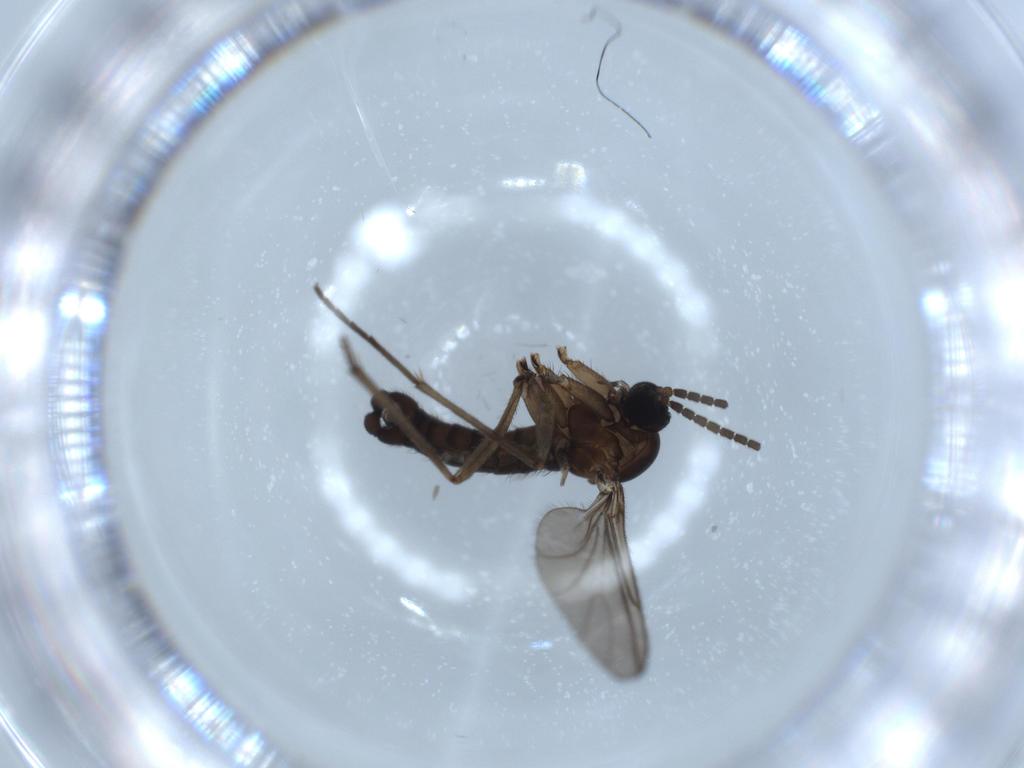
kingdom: Animalia
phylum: Arthropoda
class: Insecta
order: Diptera
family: Sciaridae
